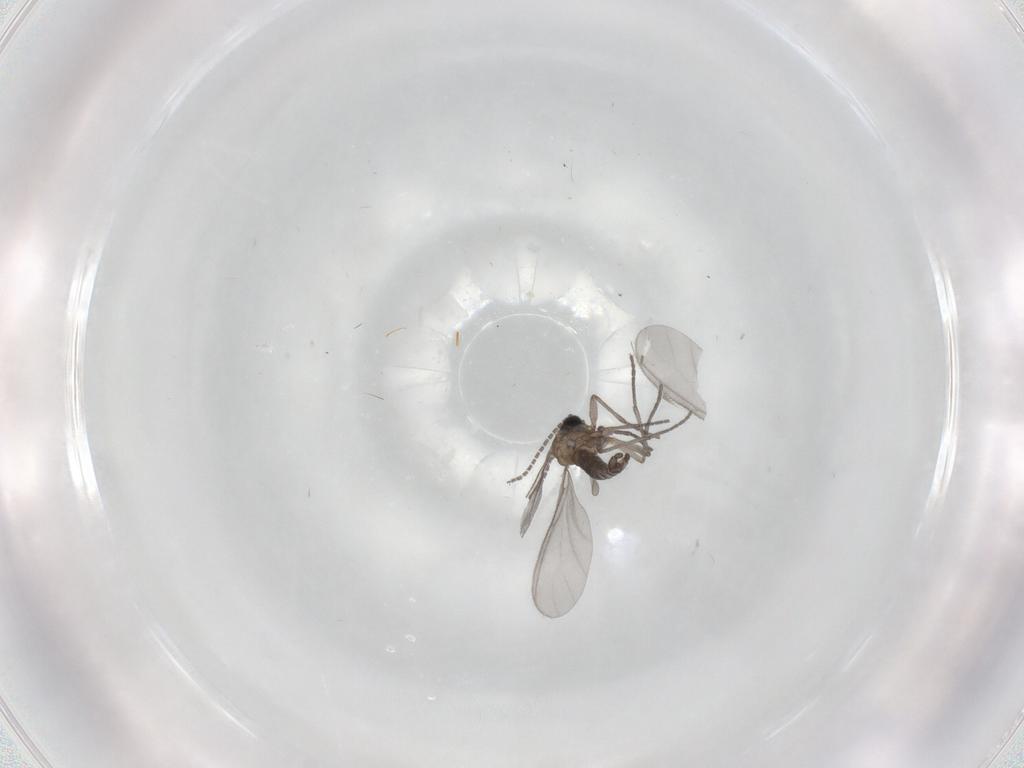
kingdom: Animalia
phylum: Arthropoda
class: Insecta
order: Diptera
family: Sciaridae
